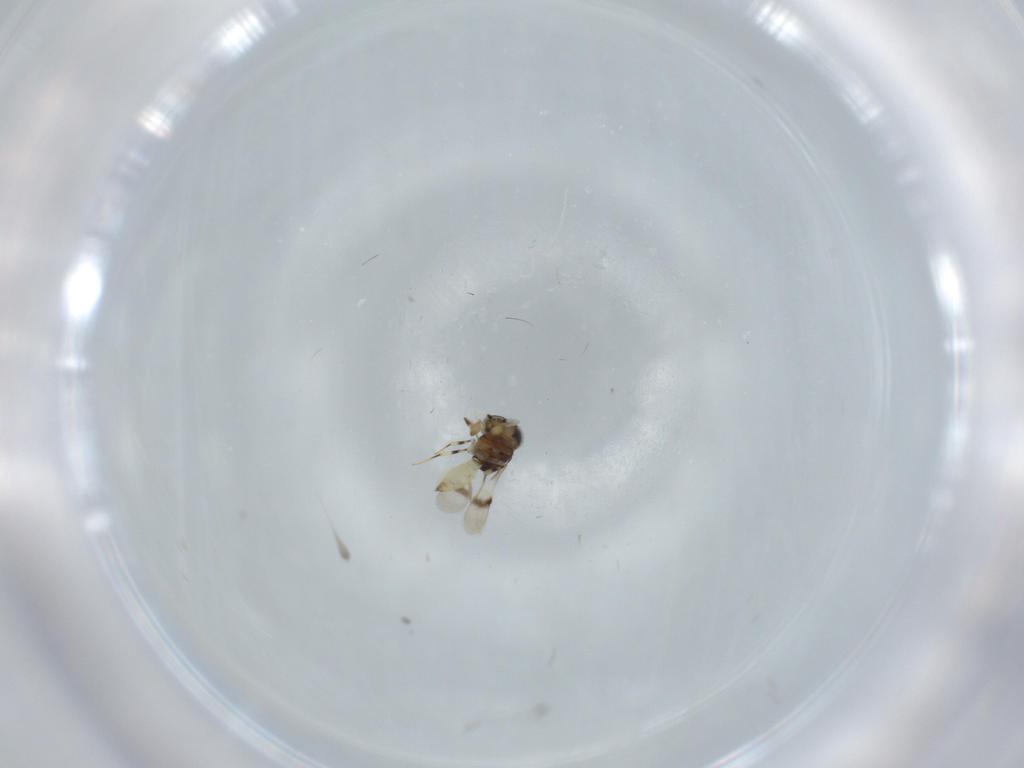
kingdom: Animalia
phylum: Arthropoda
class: Insecta
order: Hymenoptera
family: Scelionidae
